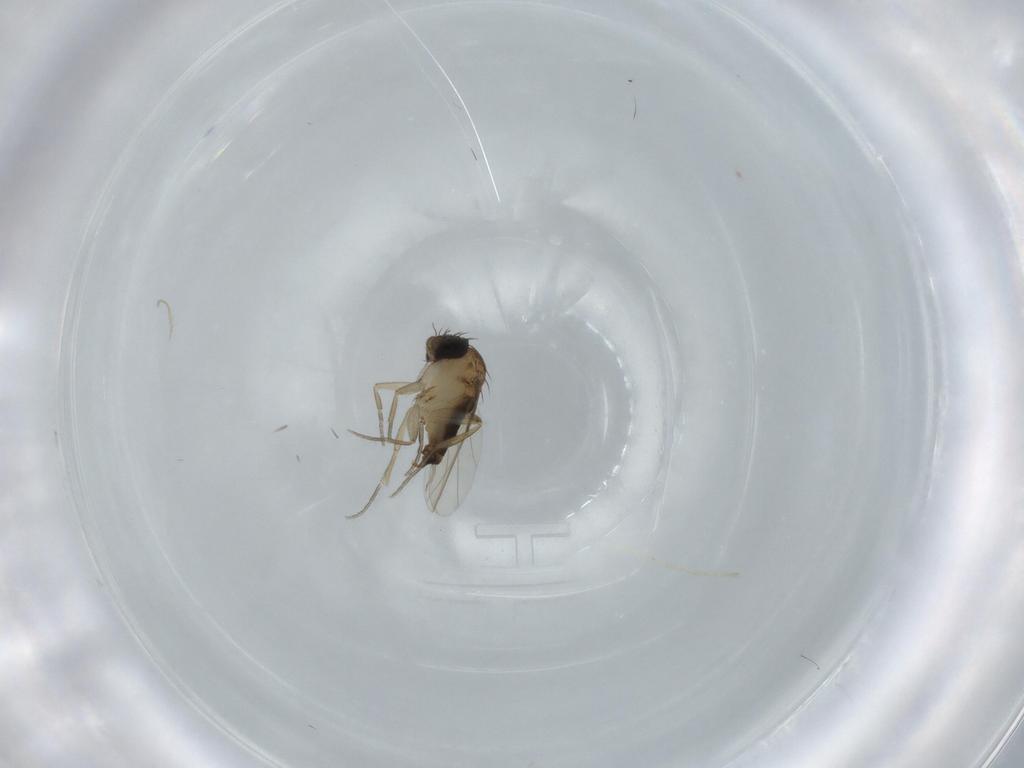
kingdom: Animalia
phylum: Arthropoda
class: Insecta
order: Diptera
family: Phoridae
